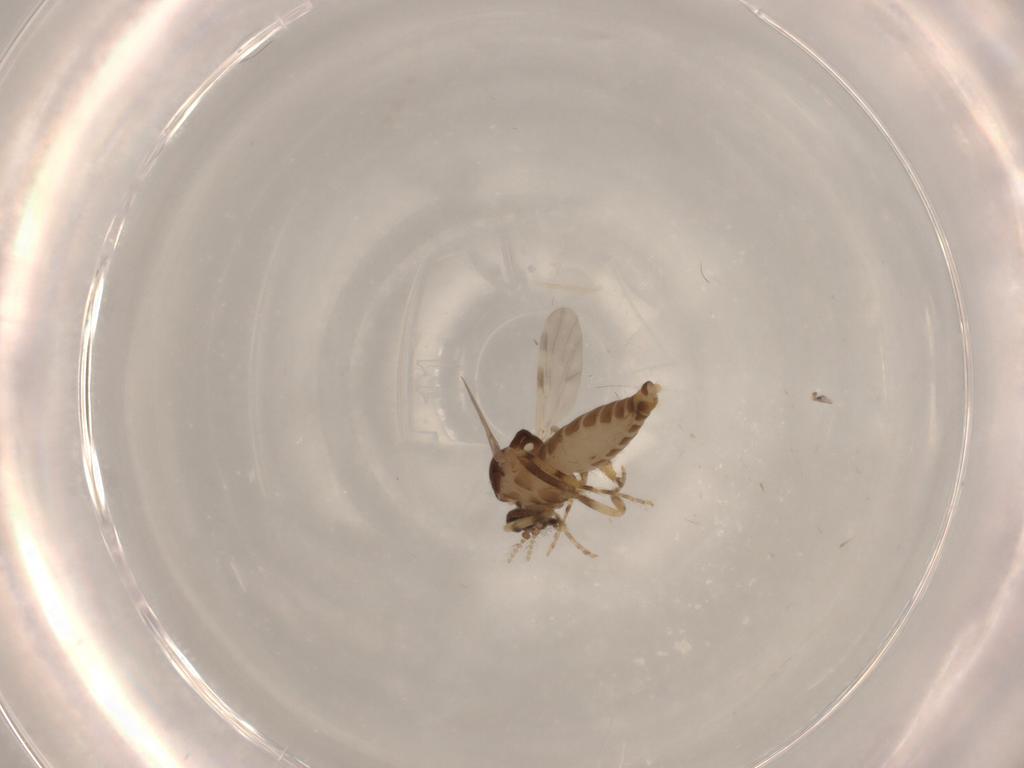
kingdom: Animalia
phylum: Arthropoda
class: Insecta
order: Diptera
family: Ceratopogonidae
